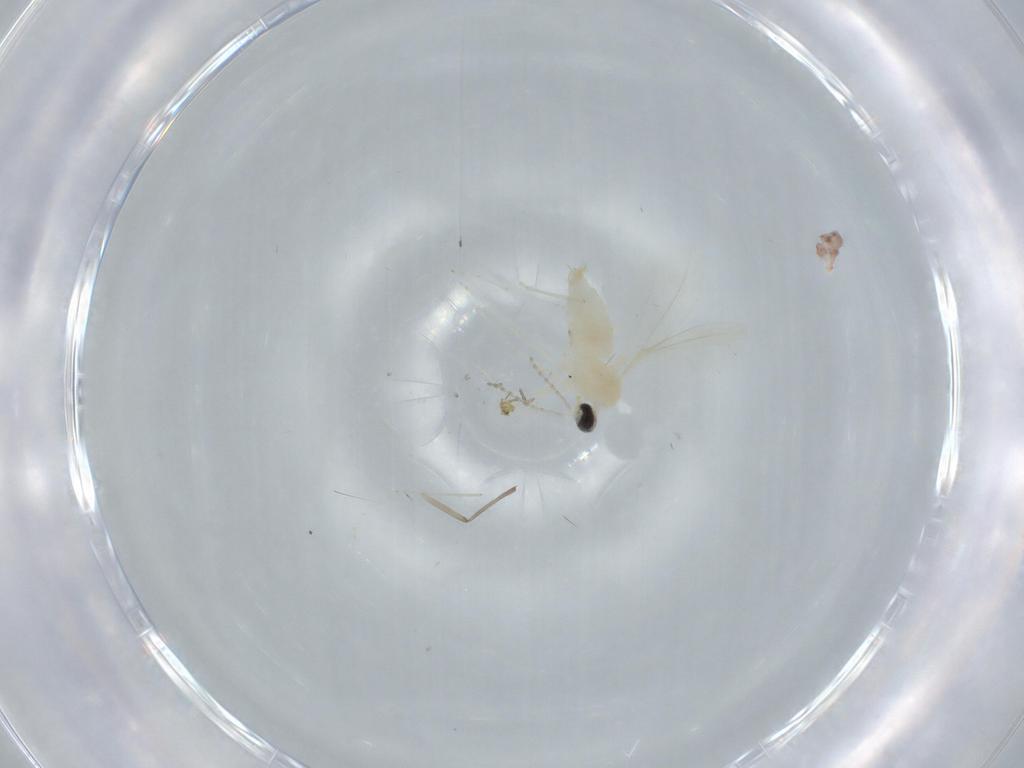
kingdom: Animalia
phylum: Arthropoda
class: Insecta
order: Diptera
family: Cecidomyiidae
